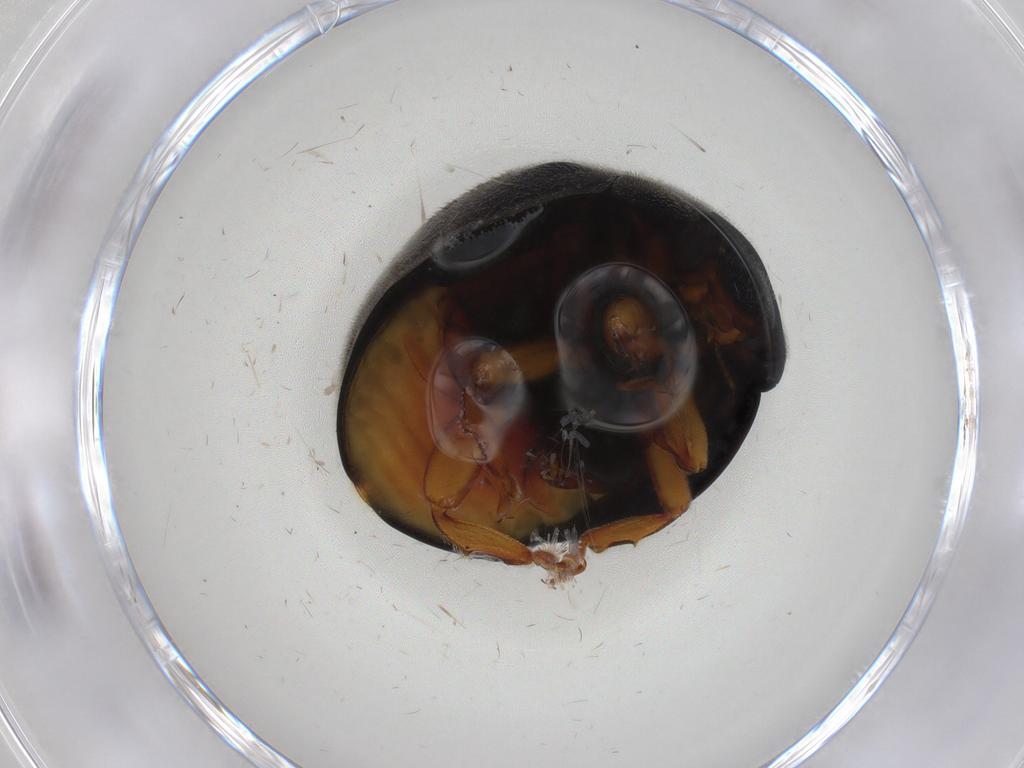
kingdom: Animalia
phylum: Arthropoda
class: Insecta
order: Coleoptera
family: Coccinellidae
